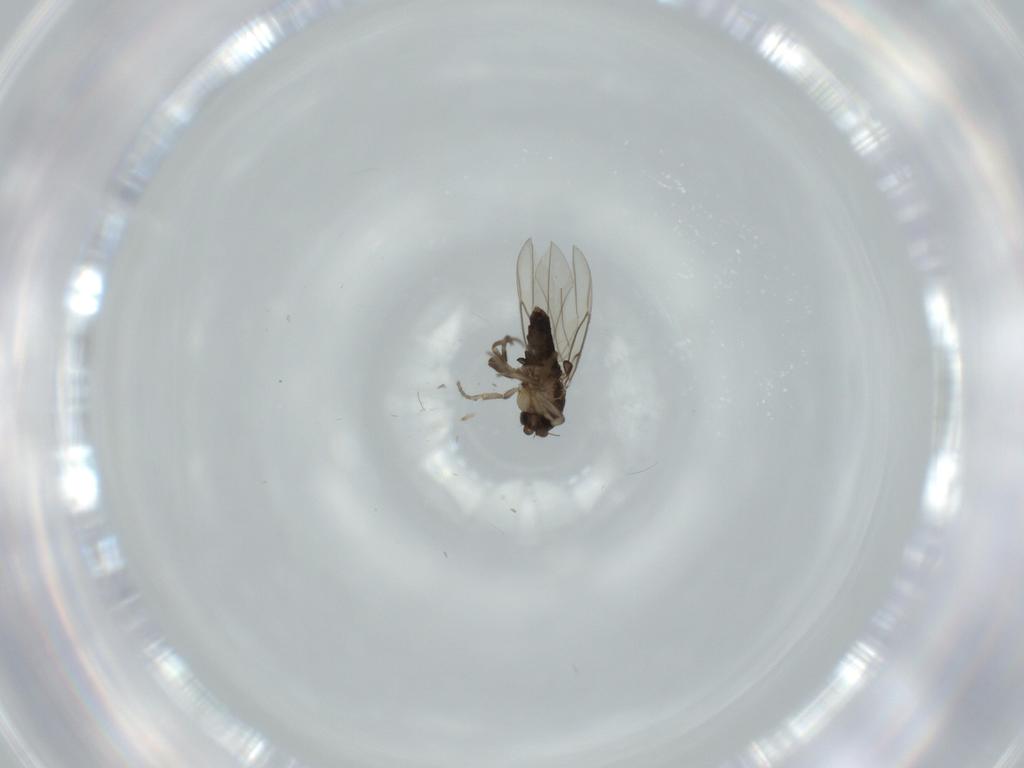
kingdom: Animalia
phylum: Arthropoda
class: Insecta
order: Diptera
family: Phoridae
